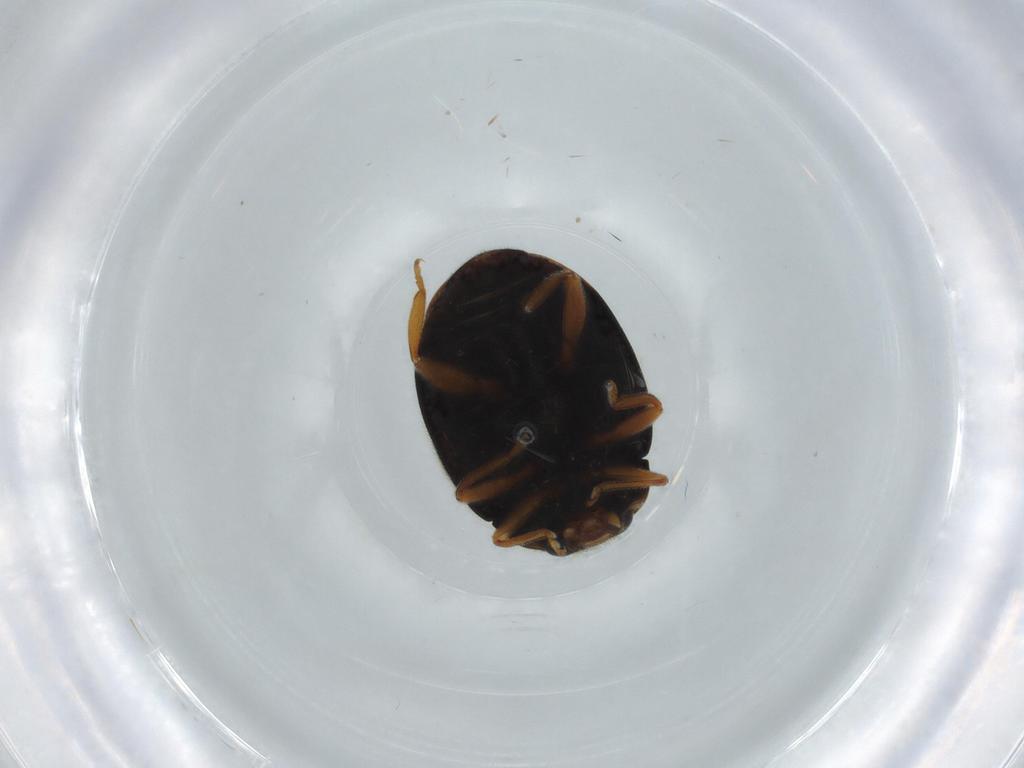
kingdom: Animalia
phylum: Arthropoda
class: Insecta
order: Coleoptera
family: Coccinellidae
